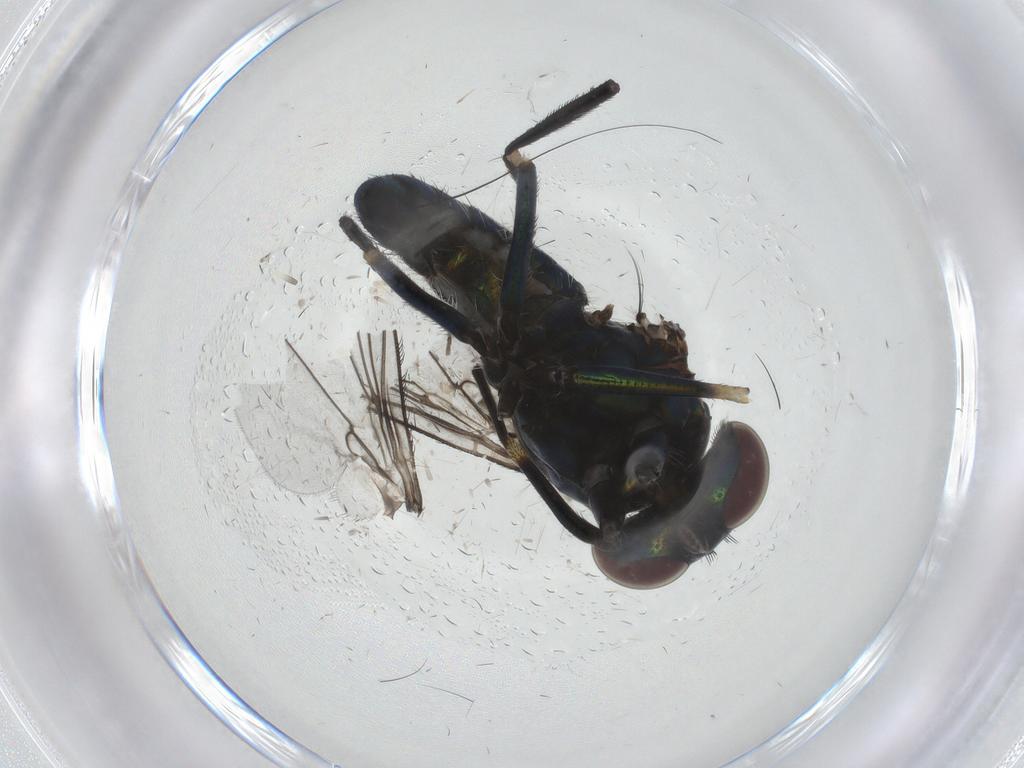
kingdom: Animalia
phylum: Arthropoda
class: Insecta
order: Diptera
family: Dolichopodidae
